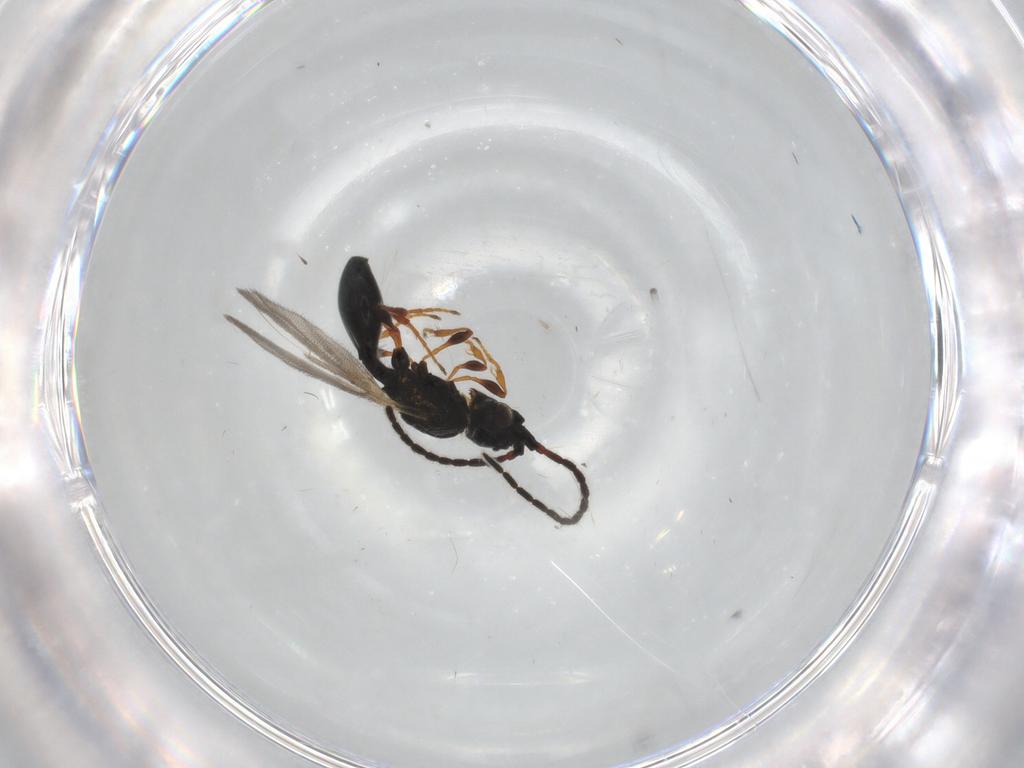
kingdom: Animalia
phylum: Arthropoda
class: Insecta
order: Hymenoptera
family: Diapriidae
